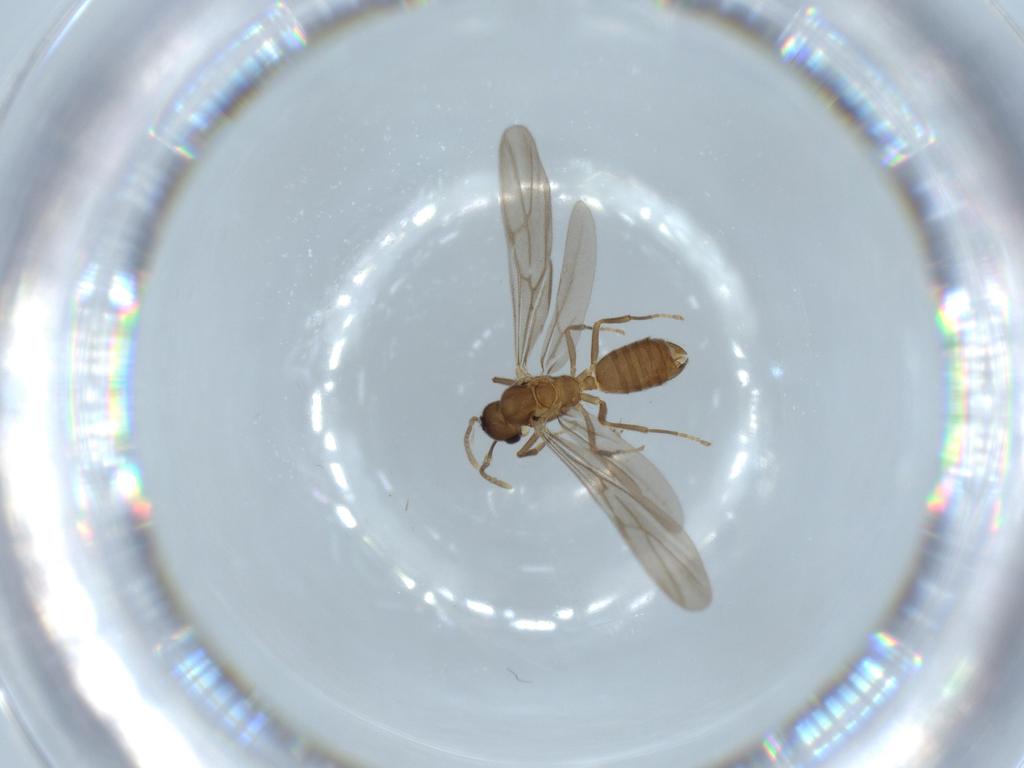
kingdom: Animalia
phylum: Arthropoda
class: Insecta
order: Hymenoptera
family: Formicidae
